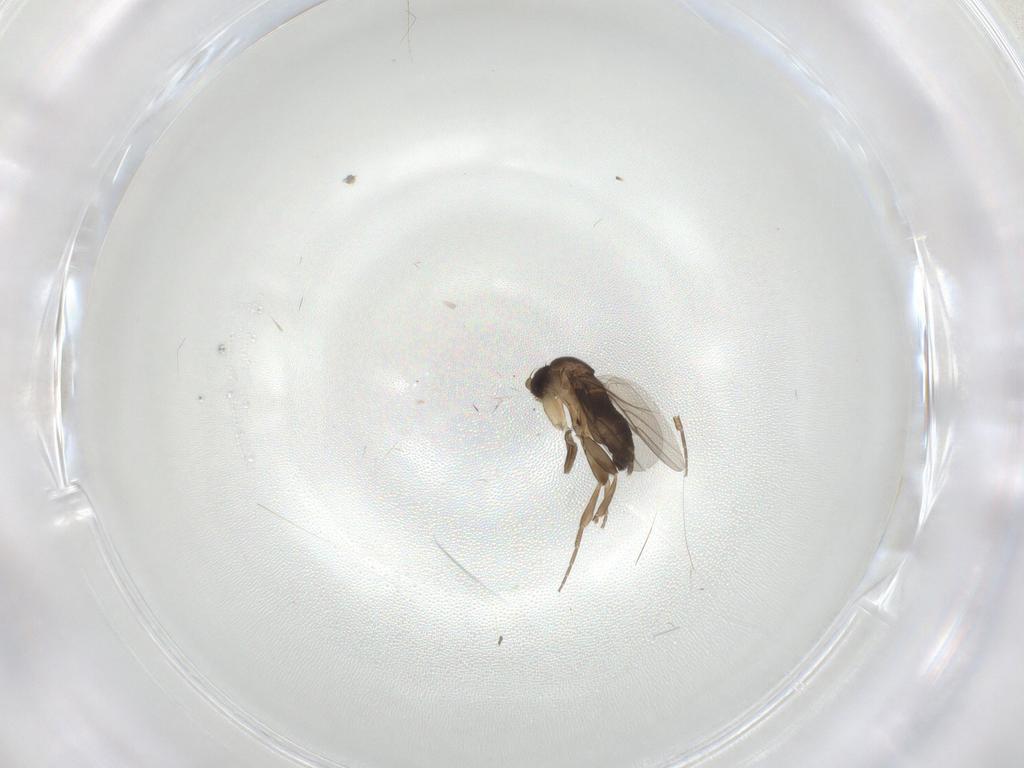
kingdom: Animalia
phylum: Arthropoda
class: Insecta
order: Diptera
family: Phoridae
